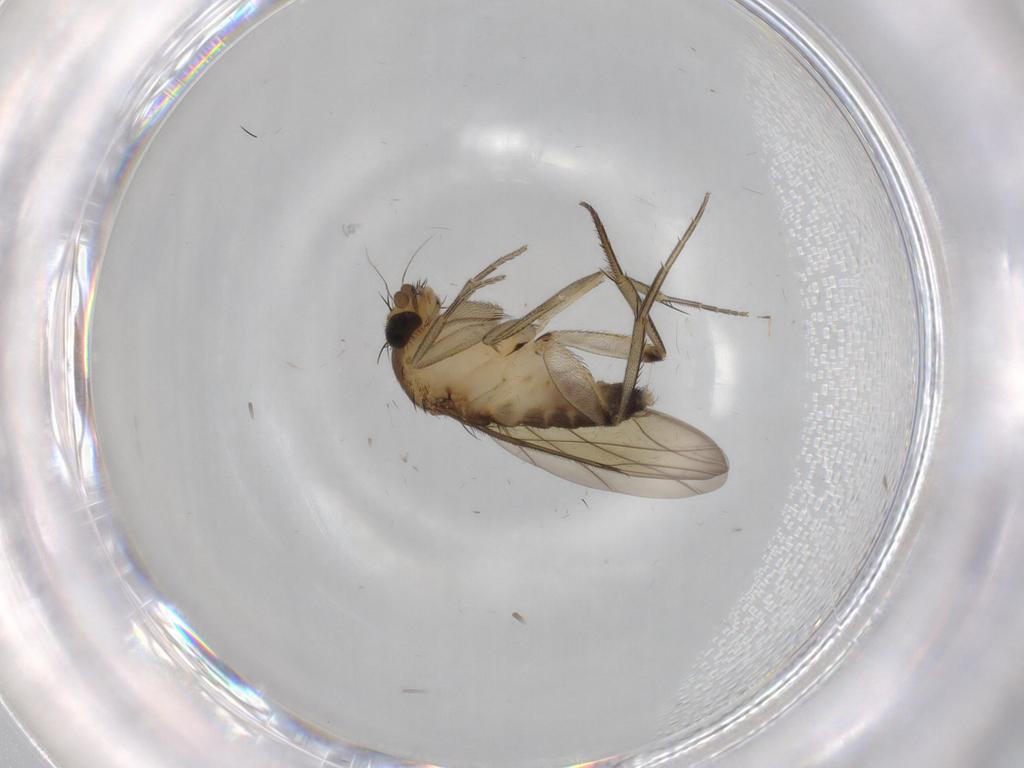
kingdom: Animalia
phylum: Arthropoda
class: Insecta
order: Diptera
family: Phoridae
